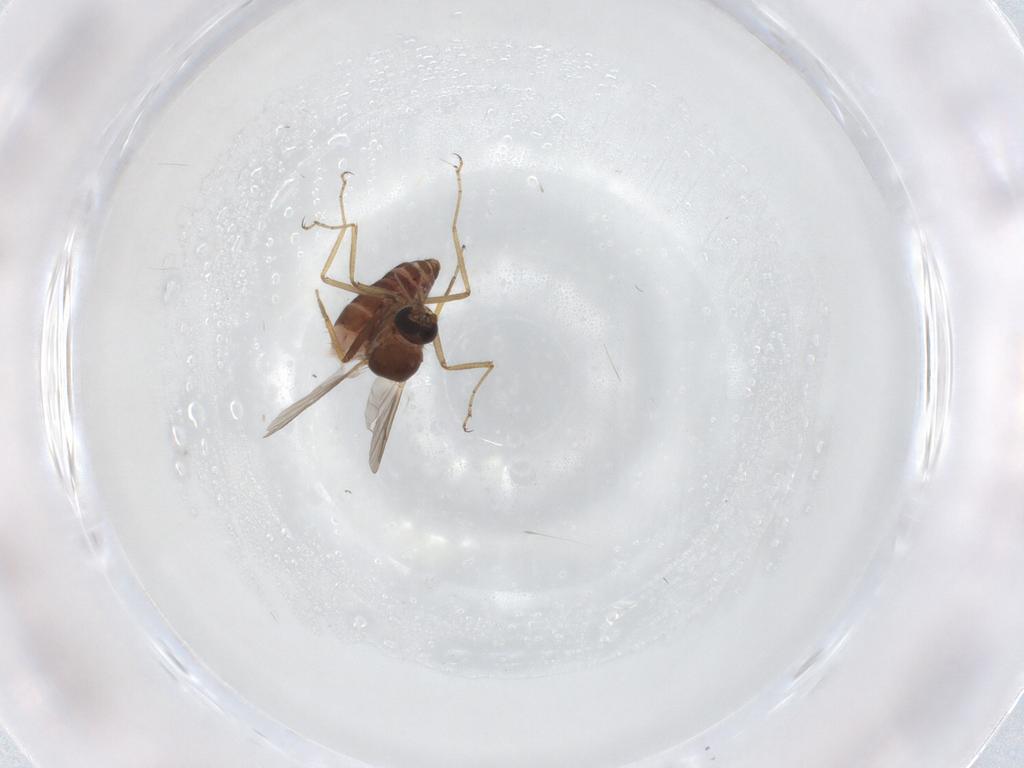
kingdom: Animalia
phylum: Arthropoda
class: Insecta
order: Diptera
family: Ceratopogonidae
